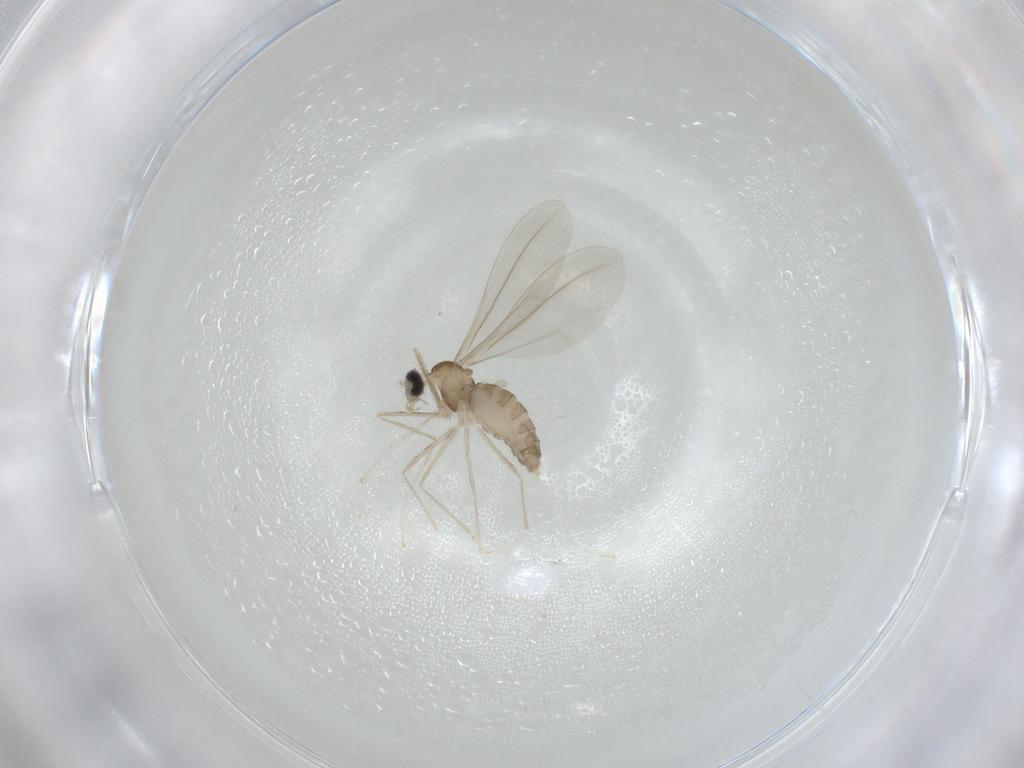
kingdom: Animalia
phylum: Arthropoda
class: Insecta
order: Diptera
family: Cecidomyiidae
